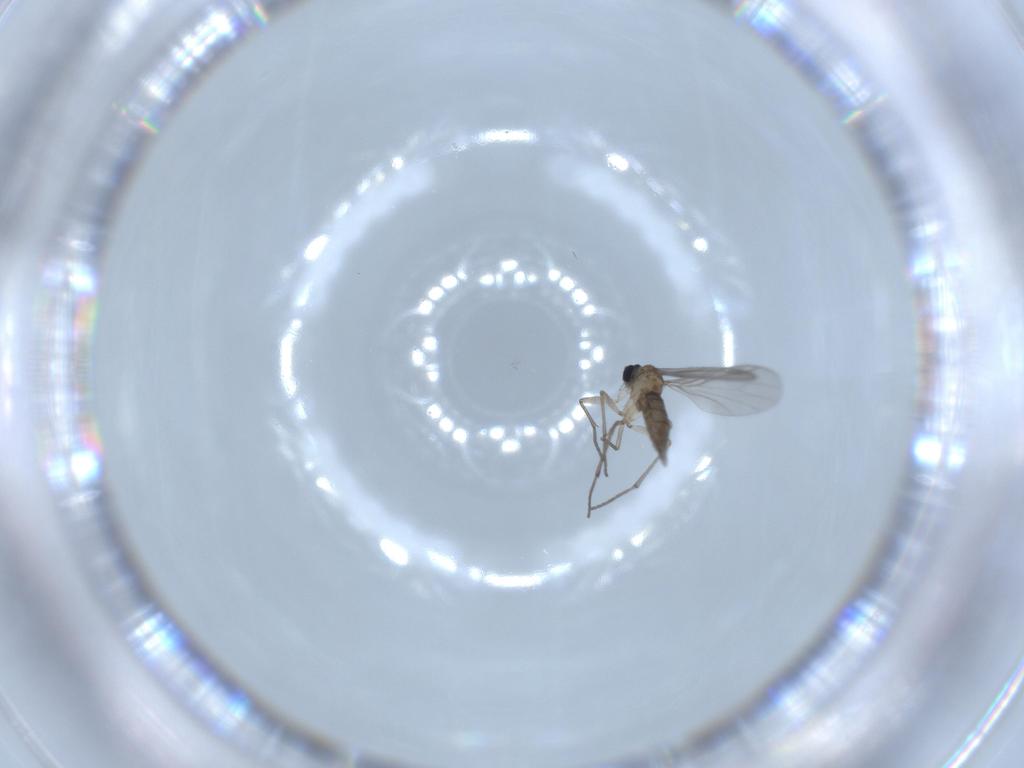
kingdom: Animalia
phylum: Arthropoda
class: Insecta
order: Diptera
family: Sciaridae
